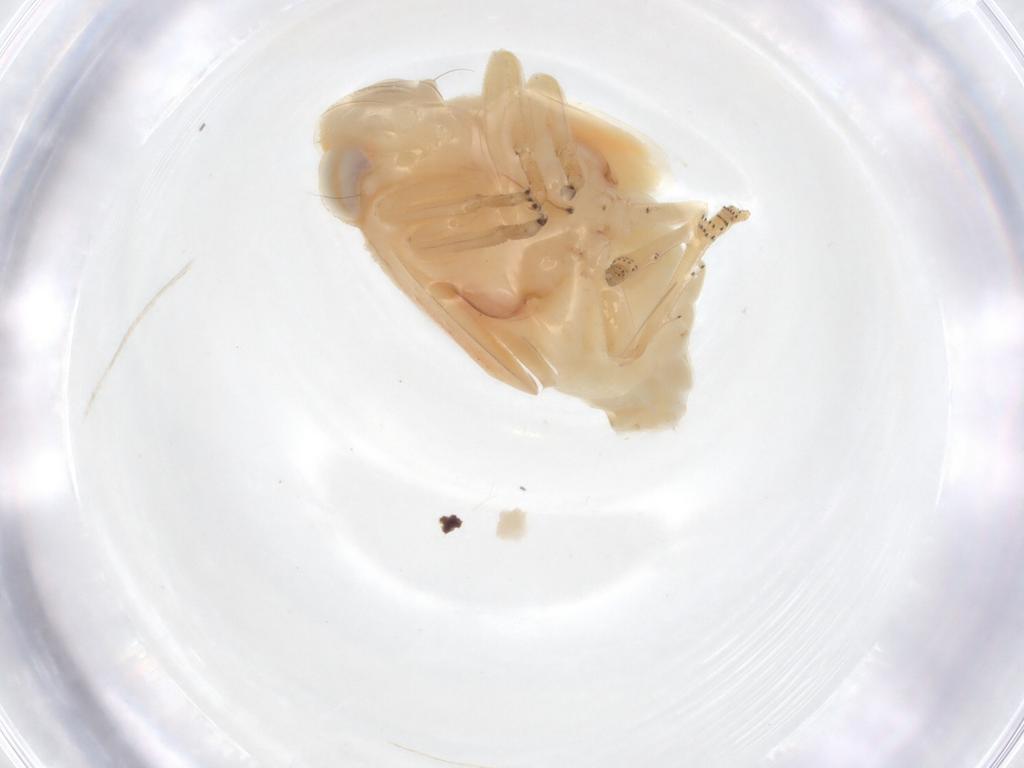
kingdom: Animalia
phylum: Arthropoda
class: Insecta
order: Hemiptera
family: Nogodinidae
